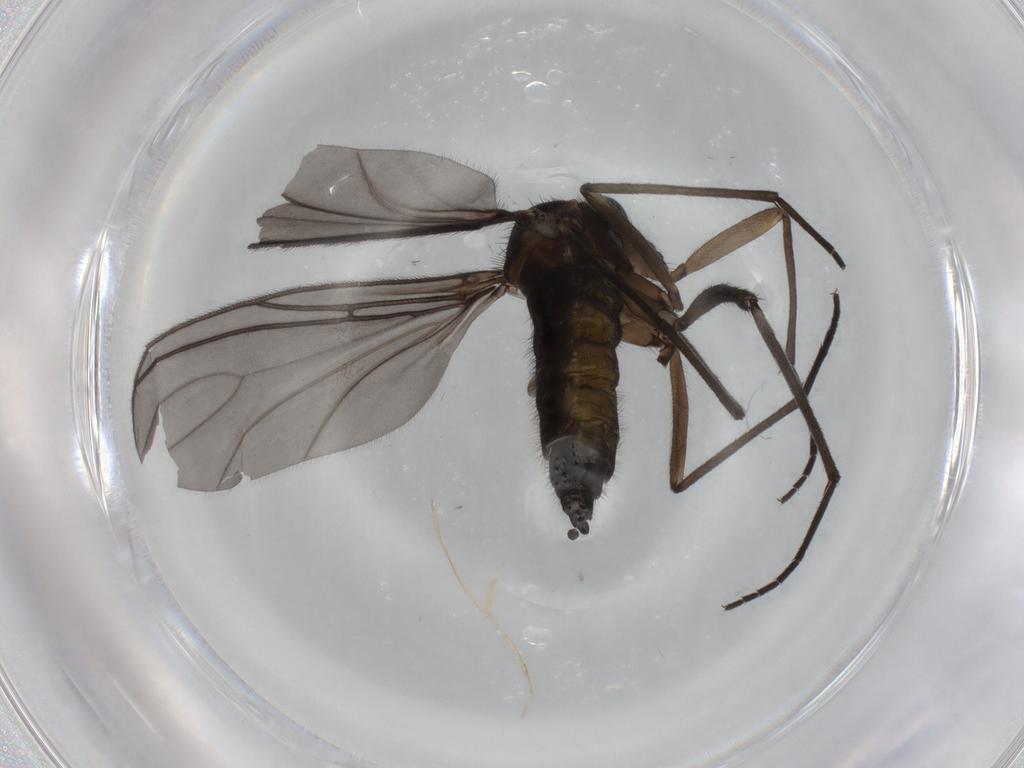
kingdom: Animalia
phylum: Arthropoda
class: Insecta
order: Diptera
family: Sciaridae
